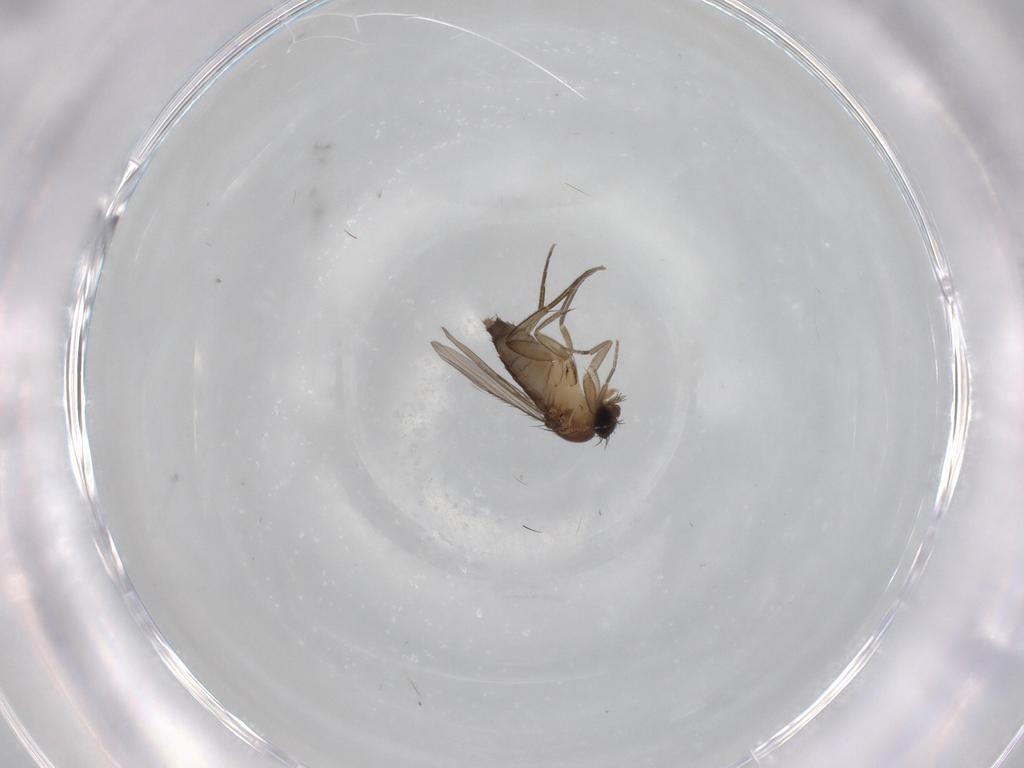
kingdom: Animalia
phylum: Arthropoda
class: Insecta
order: Diptera
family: Phoridae
